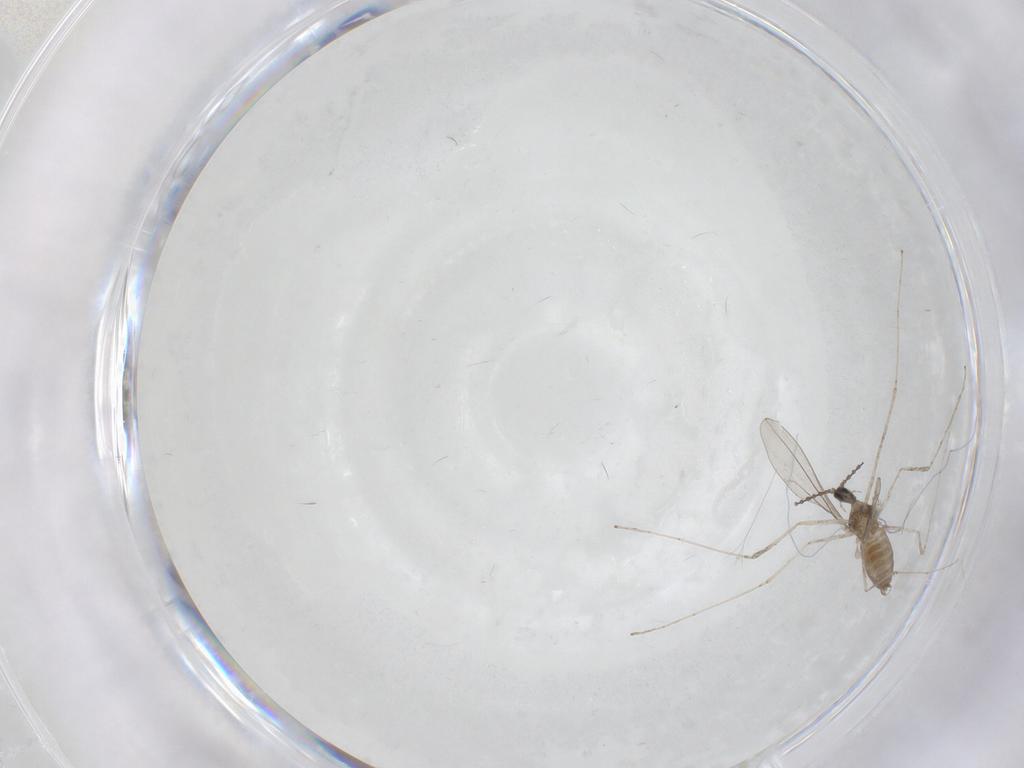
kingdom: Animalia
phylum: Arthropoda
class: Insecta
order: Diptera
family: Cecidomyiidae
